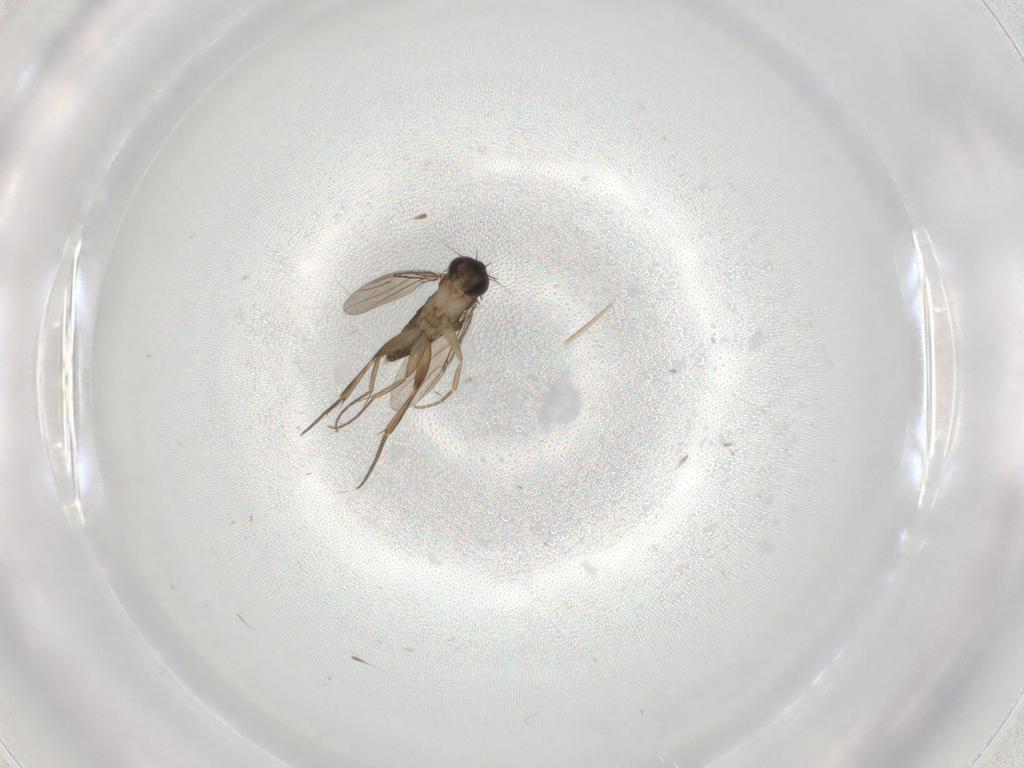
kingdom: Animalia
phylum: Arthropoda
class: Insecta
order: Diptera
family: Phoridae
